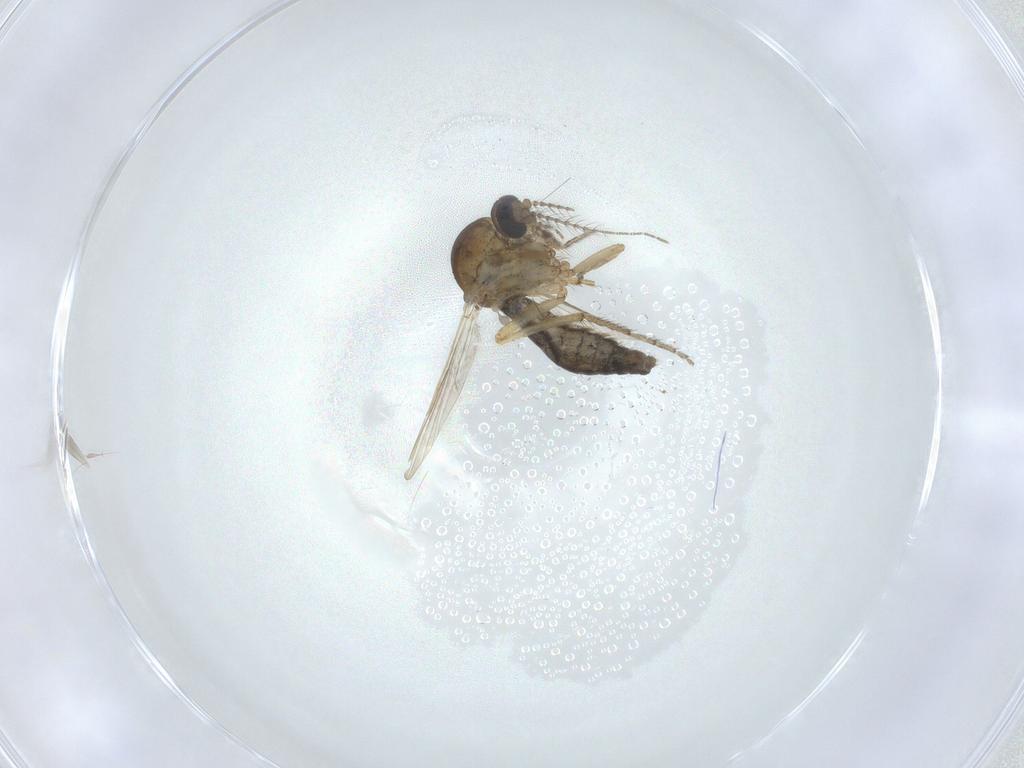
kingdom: Animalia
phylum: Arthropoda
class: Insecta
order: Diptera
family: Ceratopogonidae
